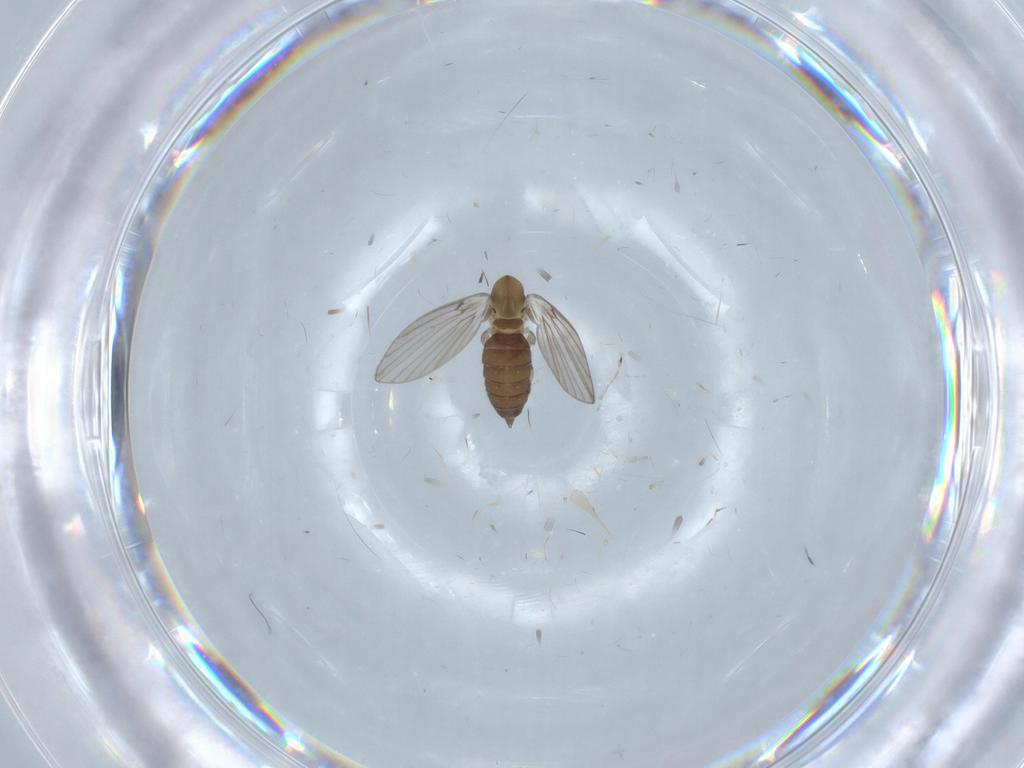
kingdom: Animalia
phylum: Arthropoda
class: Insecta
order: Diptera
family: Psychodidae
